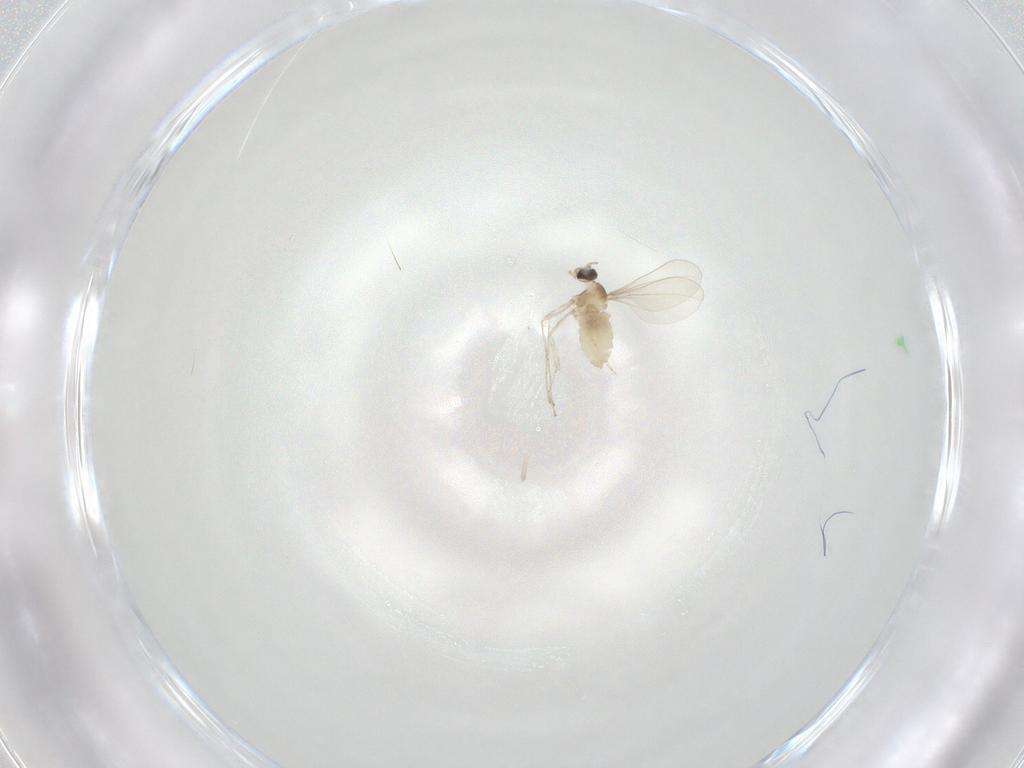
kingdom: Animalia
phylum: Arthropoda
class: Insecta
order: Diptera
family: Cecidomyiidae
